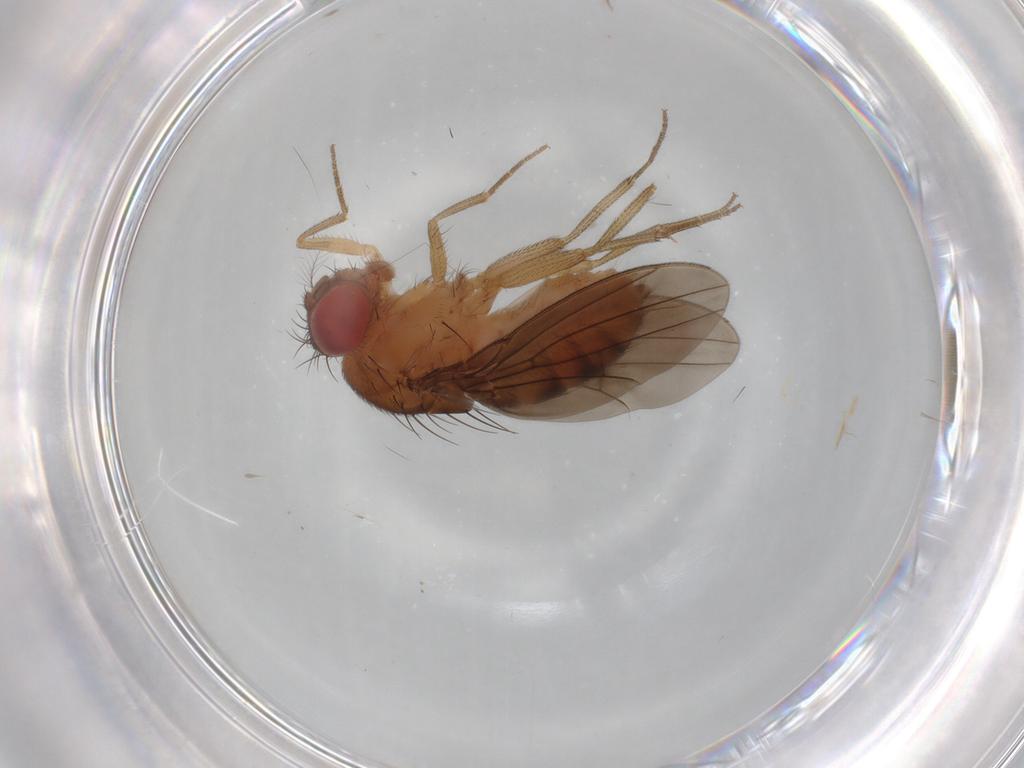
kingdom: Animalia
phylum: Arthropoda
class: Insecta
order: Diptera
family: Drosophilidae
